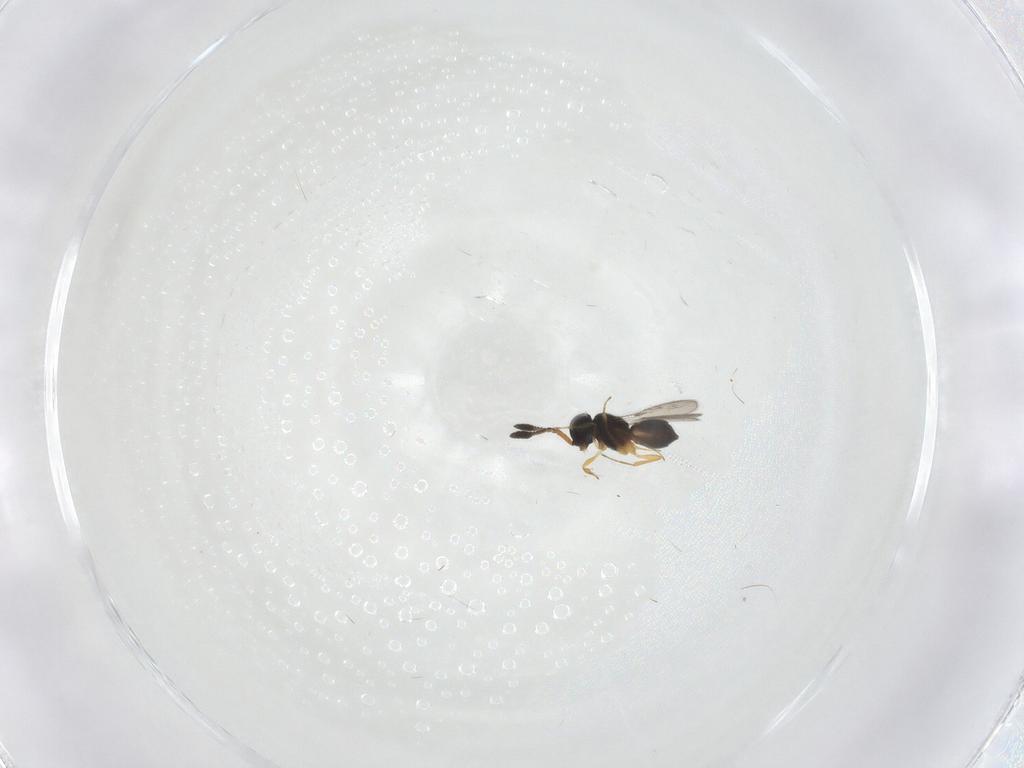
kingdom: Animalia
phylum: Arthropoda
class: Insecta
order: Hymenoptera
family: Scelionidae
